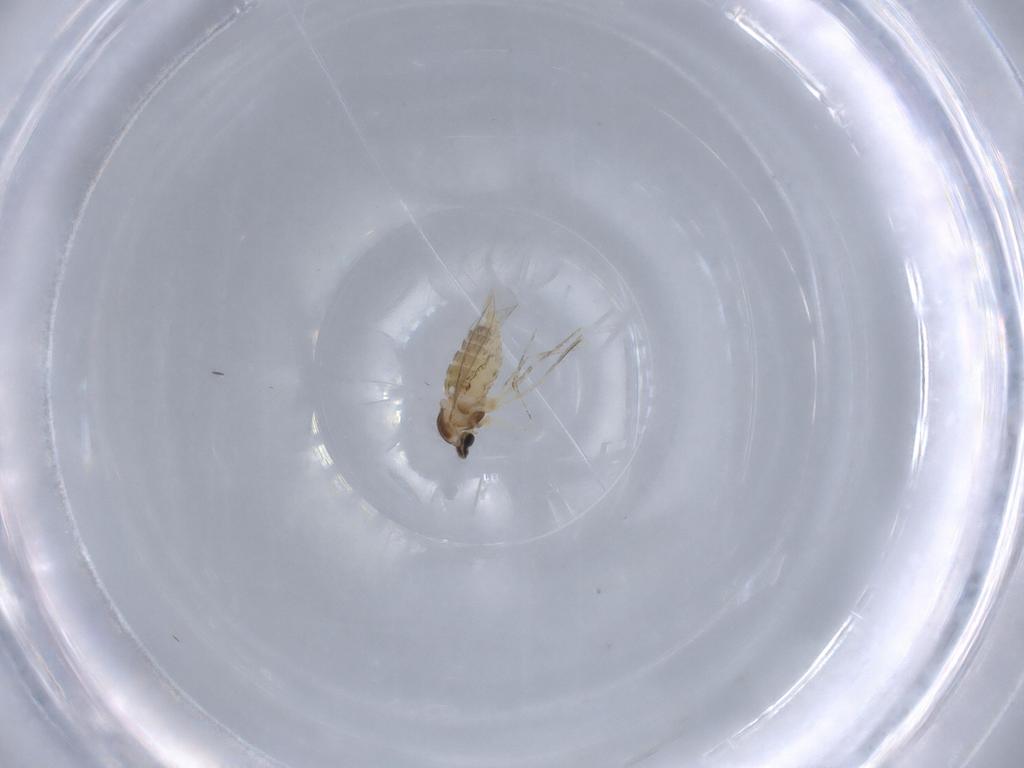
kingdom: Animalia
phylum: Arthropoda
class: Insecta
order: Diptera
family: Cecidomyiidae
